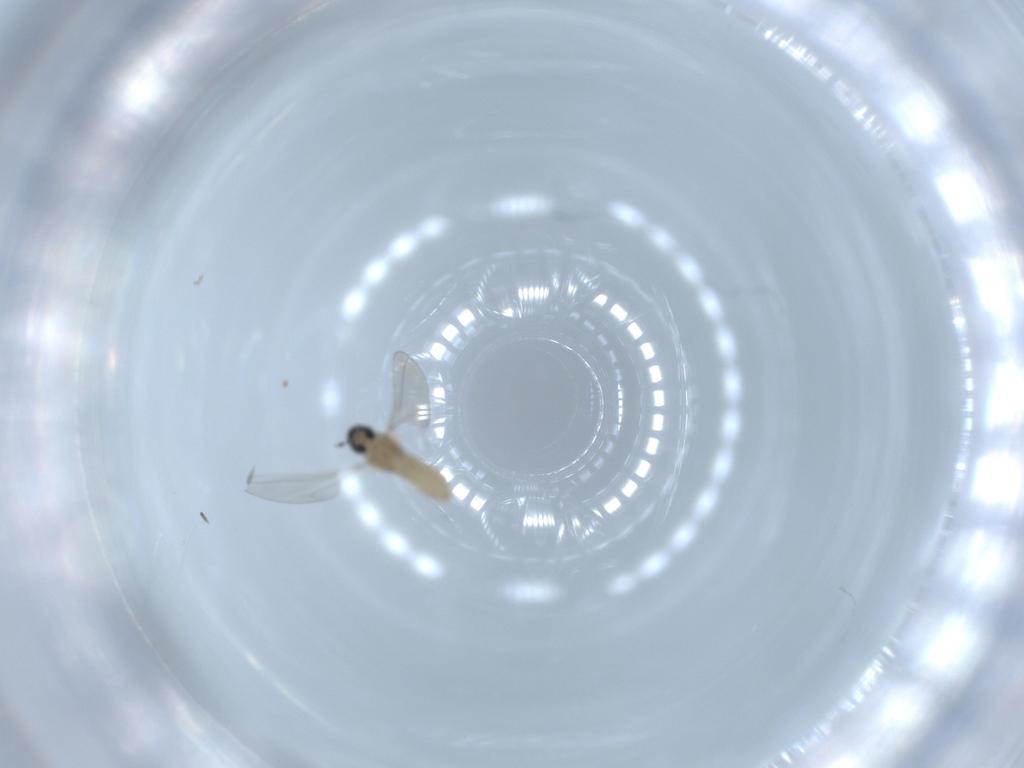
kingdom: Animalia
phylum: Arthropoda
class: Insecta
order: Diptera
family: Cecidomyiidae
